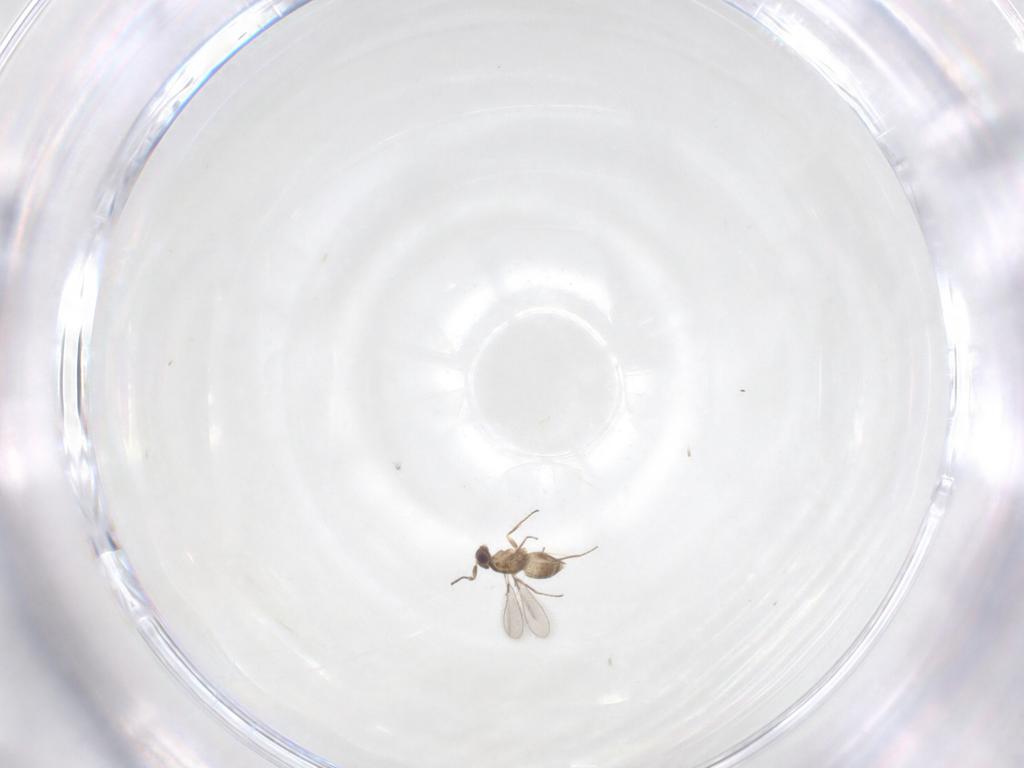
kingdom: Animalia
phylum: Arthropoda
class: Insecta
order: Hymenoptera
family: Mymaridae
